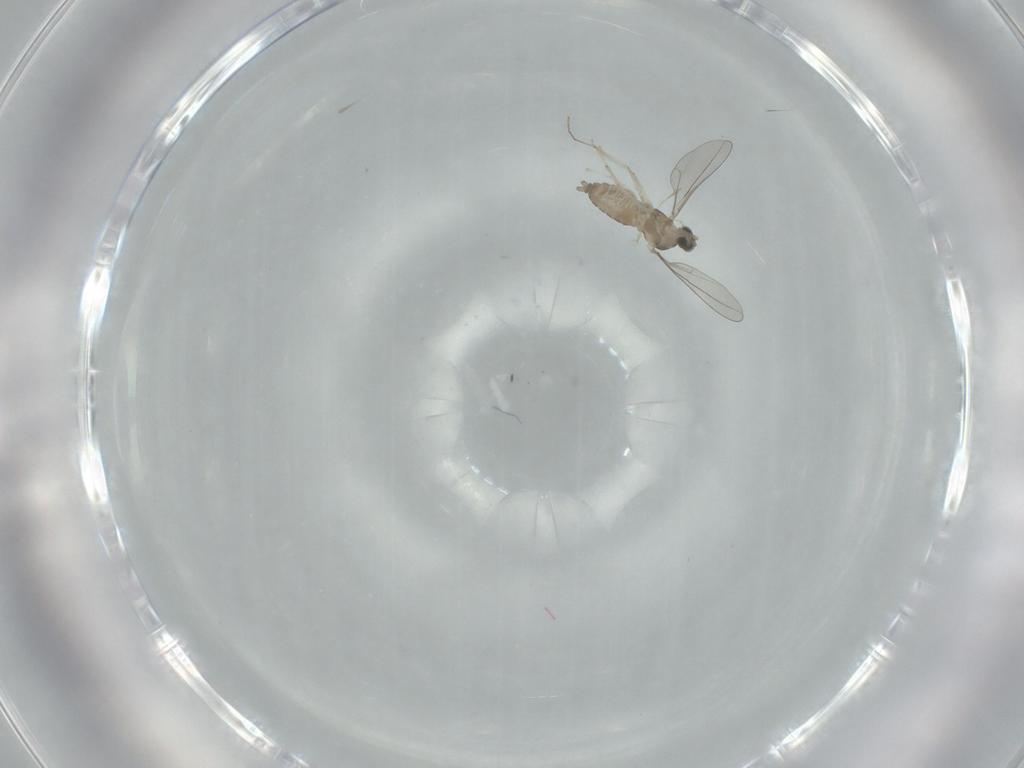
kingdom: Animalia
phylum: Arthropoda
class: Insecta
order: Diptera
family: Cecidomyiidae
